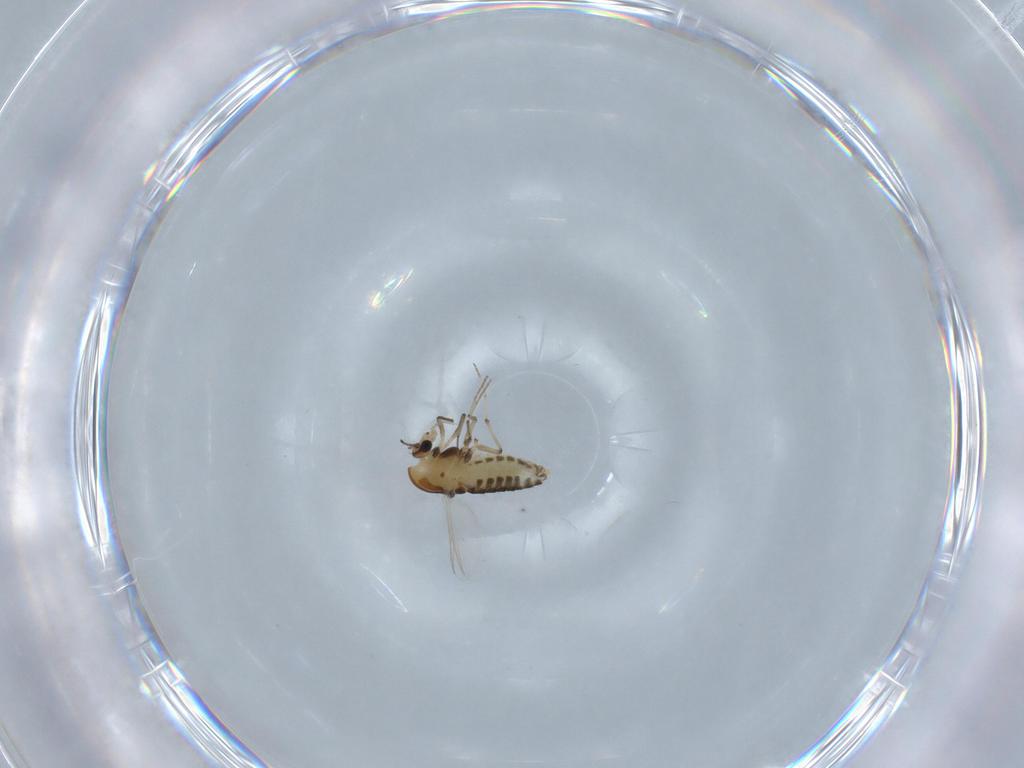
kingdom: Animalia
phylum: Arthropoda
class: Insecta
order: Diptera
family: Chironomidae
